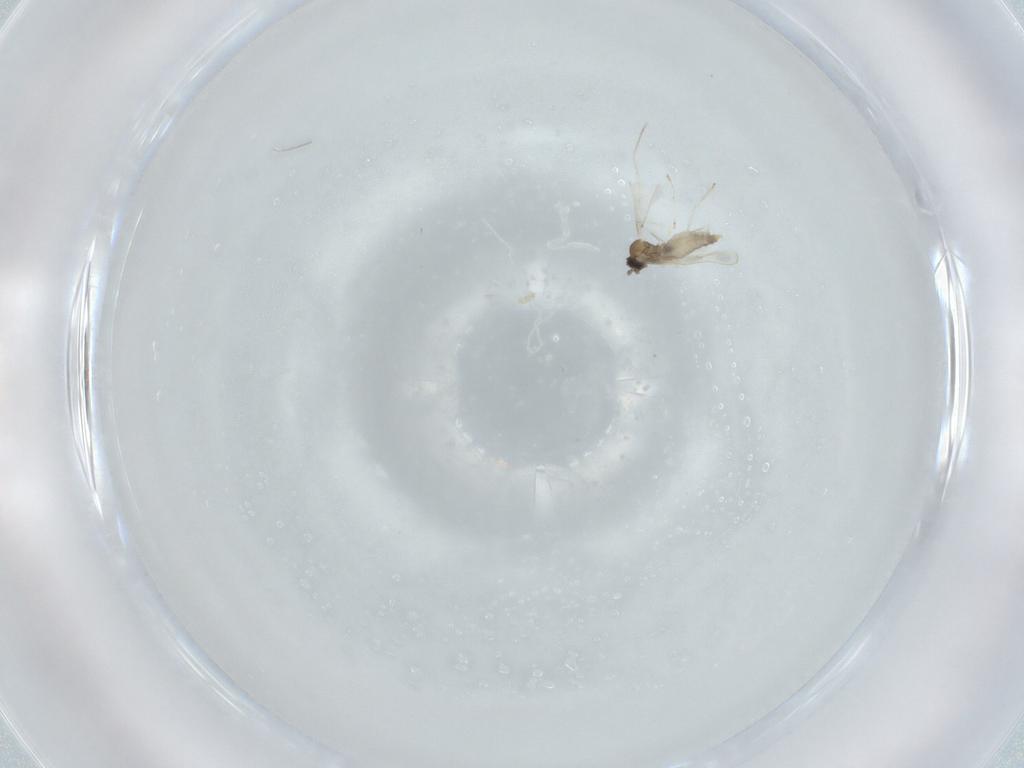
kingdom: Animalia
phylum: Arthropoda
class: Insecta
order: Diptera
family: Cecidomyiidae
